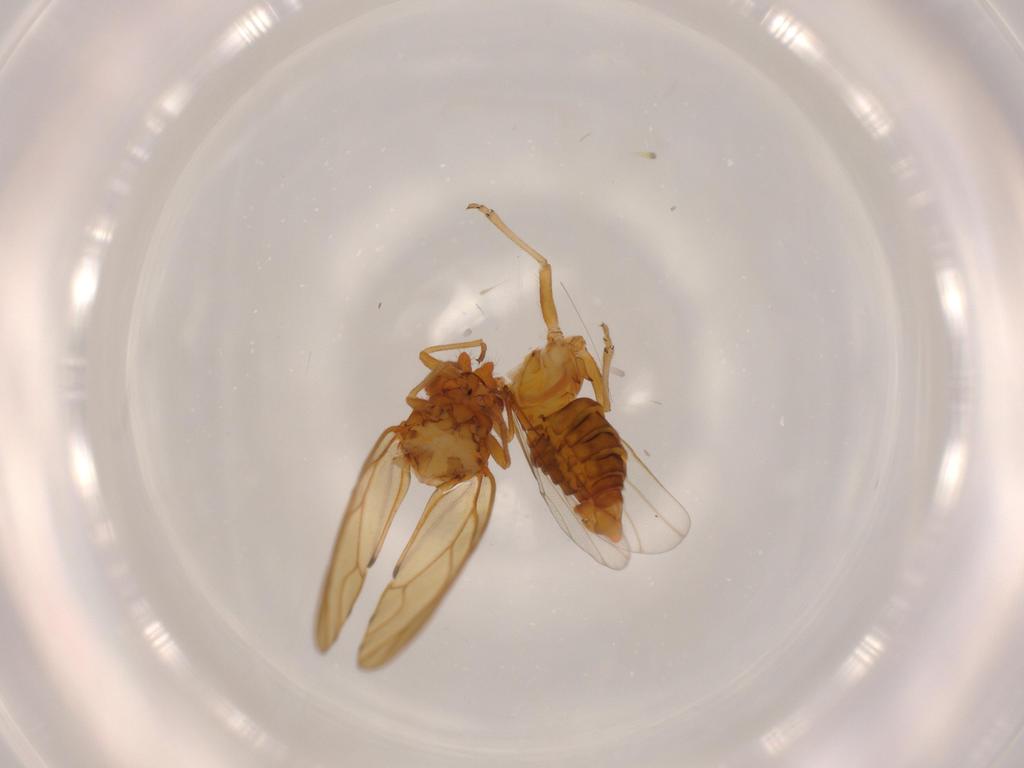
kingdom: Animalia
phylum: Arthropoda
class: Insecta
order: Hemiptera
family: Psylloidea_incertae_sedis
